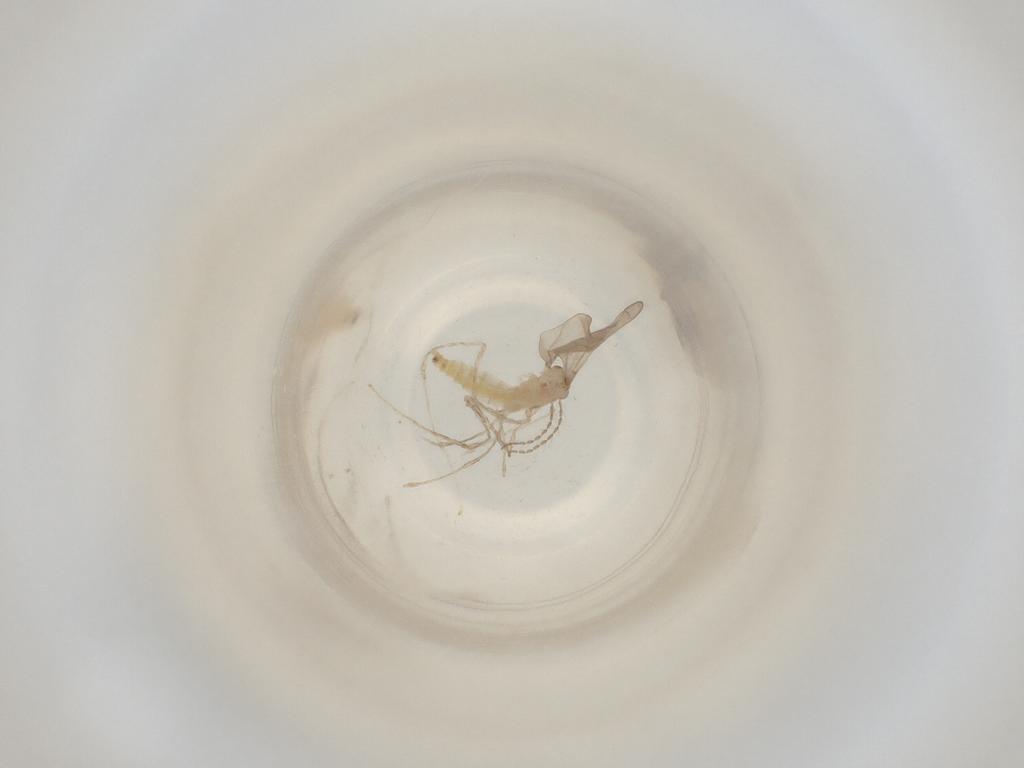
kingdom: Animalia
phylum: Arthropoda
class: Insecta
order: Diptera
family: Cecidomyiidae
